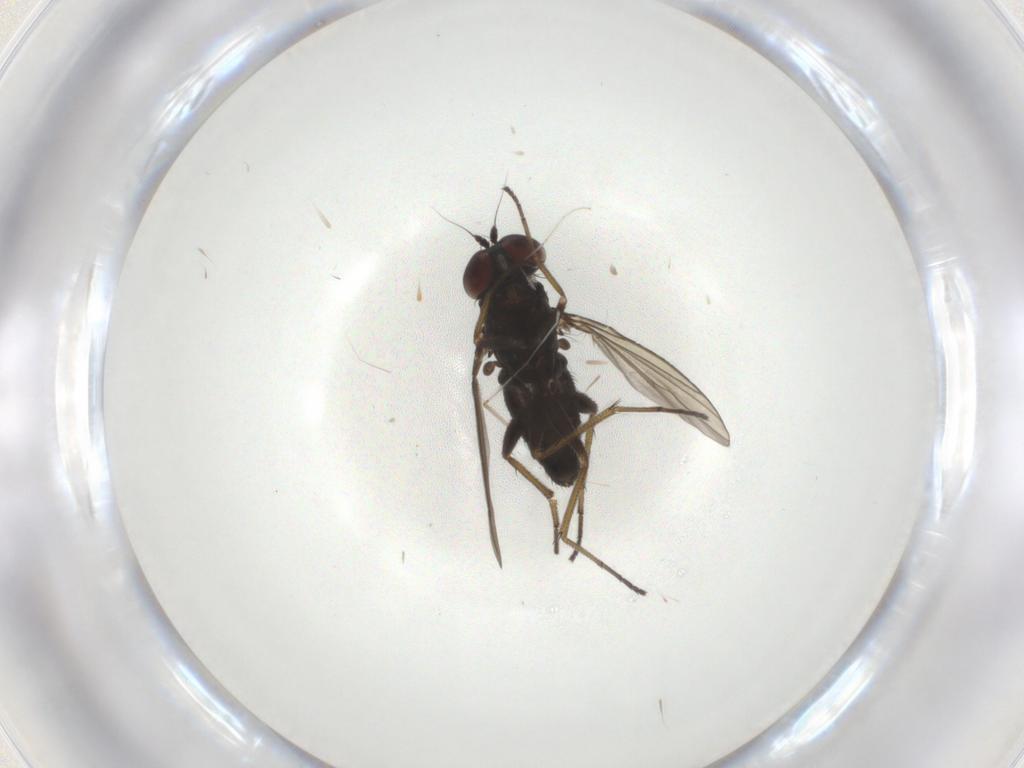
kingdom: Animalia
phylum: Arthropoda
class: Insecta
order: Diptera
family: Dolichopodidae
